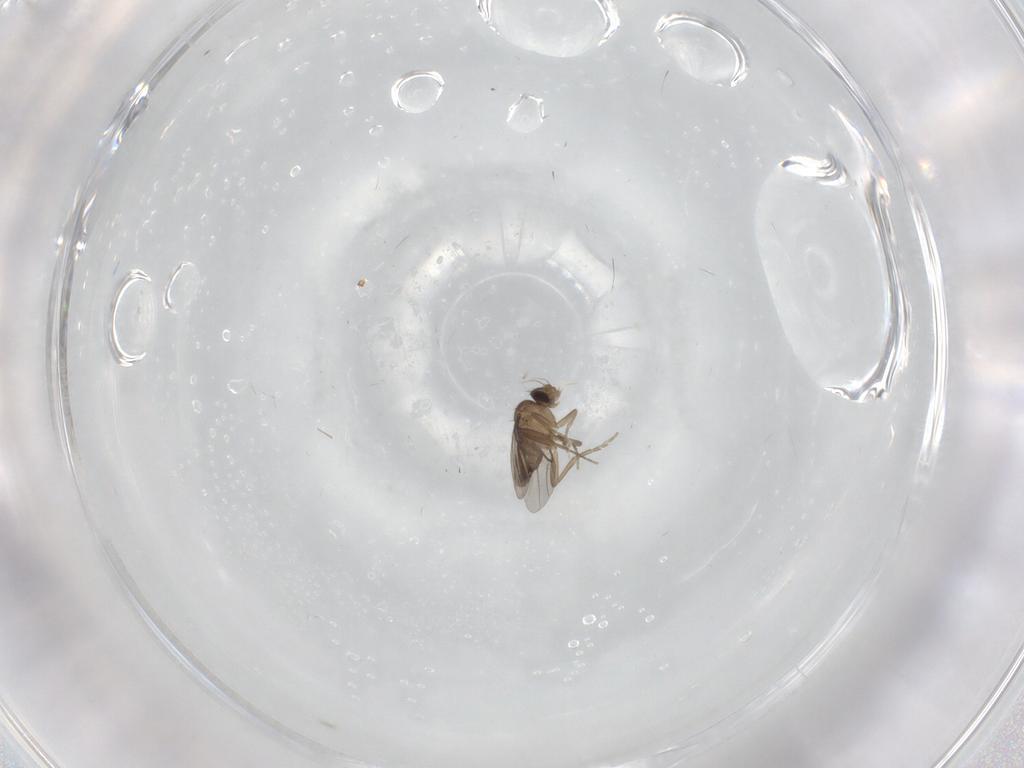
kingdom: Animalia
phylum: Arthropoda
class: Insecta
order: Diptera
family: Phoridae
